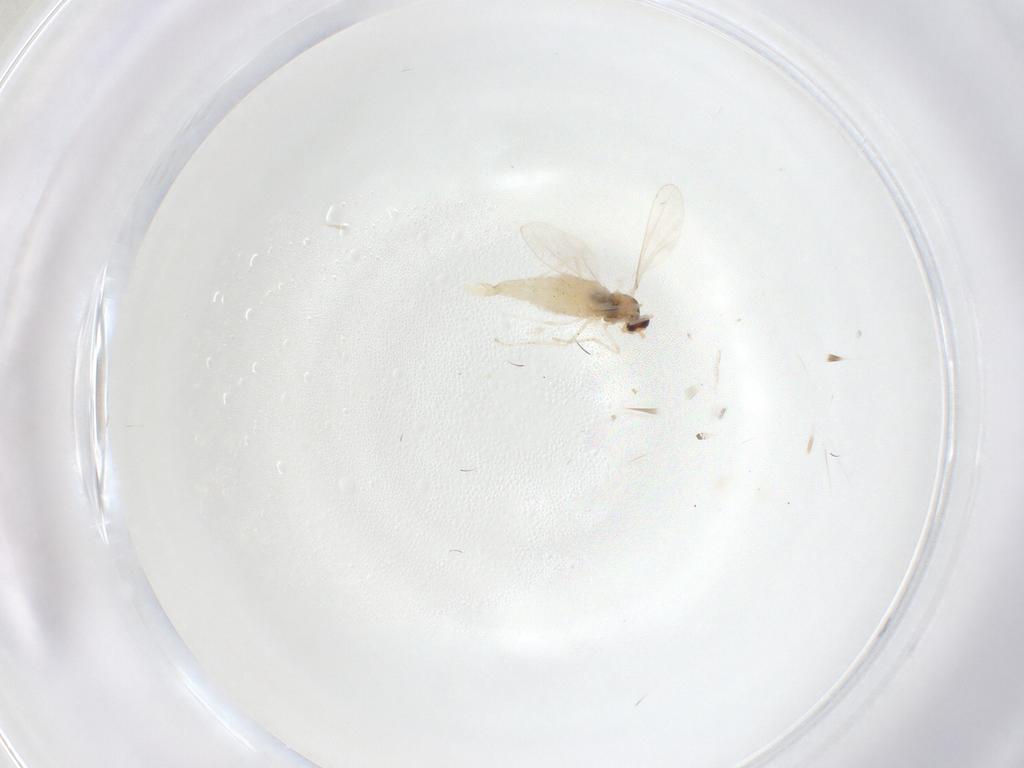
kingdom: Animalia
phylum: Arthropoda
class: Insecta
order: Diptera
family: Cecidomyiidae
